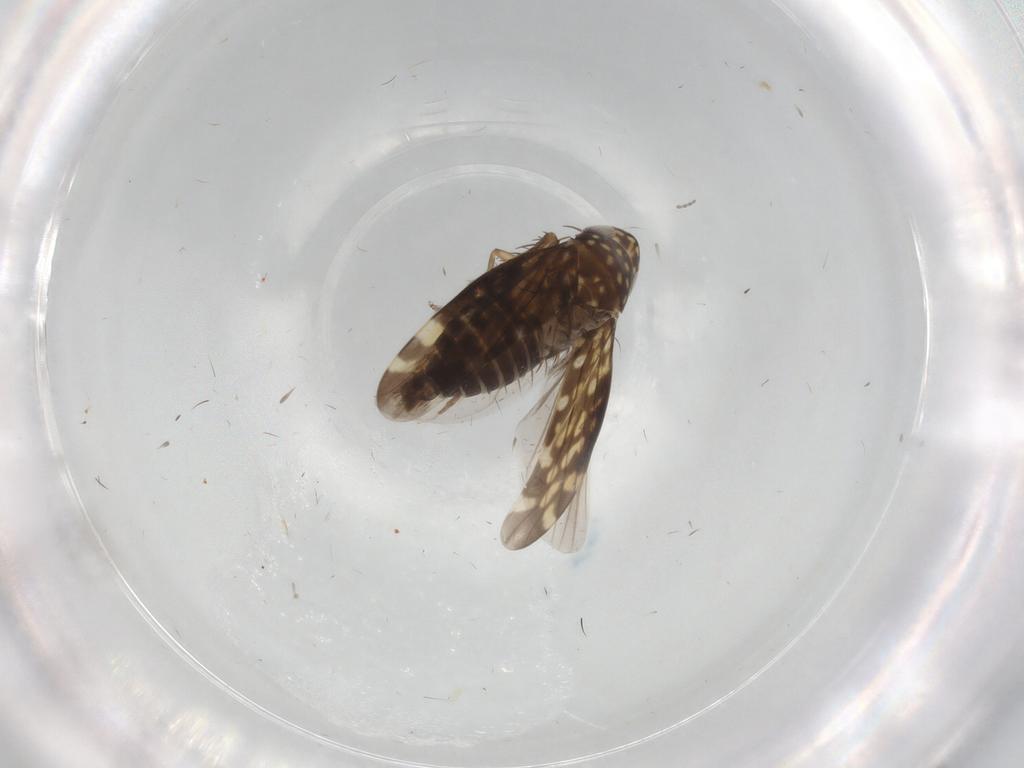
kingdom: Animalia
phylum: Arthropoda
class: Insecta
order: Hemiptera
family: Cicadellidae
